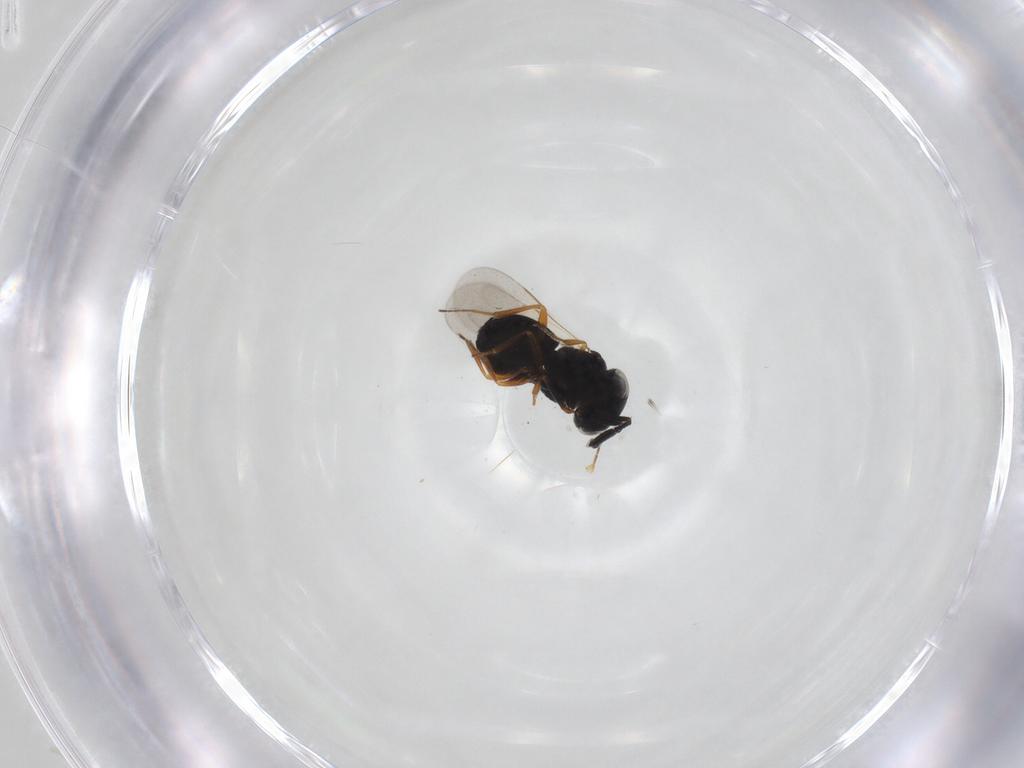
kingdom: Animalia
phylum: Arthropoda
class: Insecta
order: Hymenoptera
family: Scelionidae
